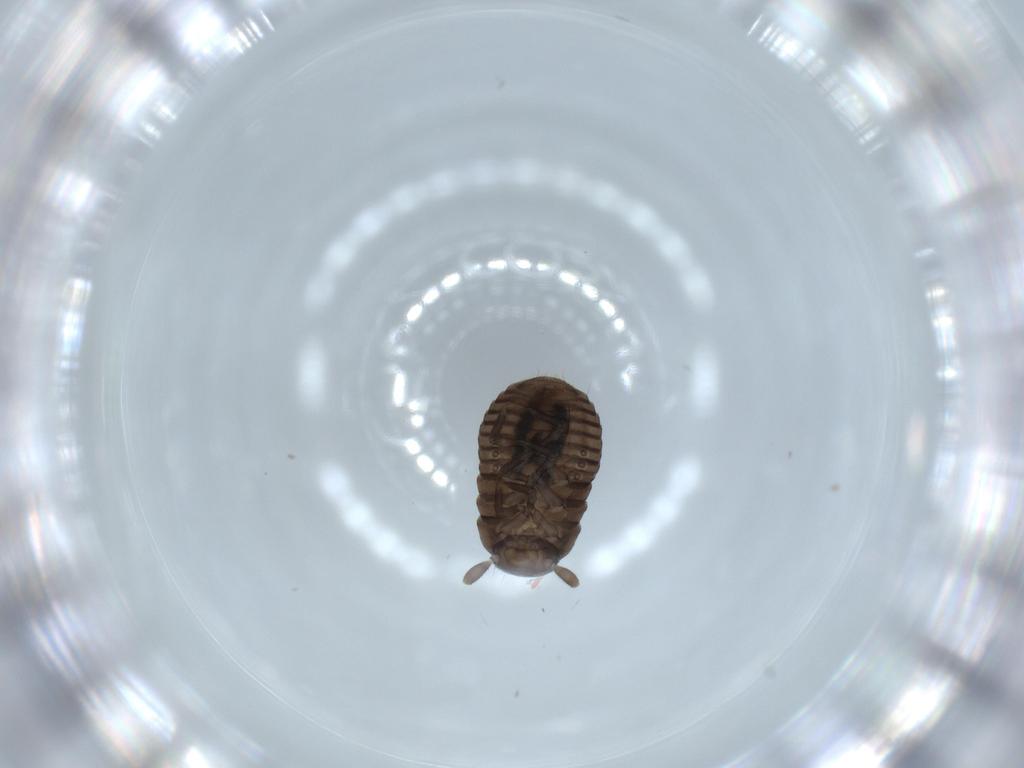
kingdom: Animalia
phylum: Arthropoda
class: Insecta
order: Coleoptera
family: Tenebrionidae
